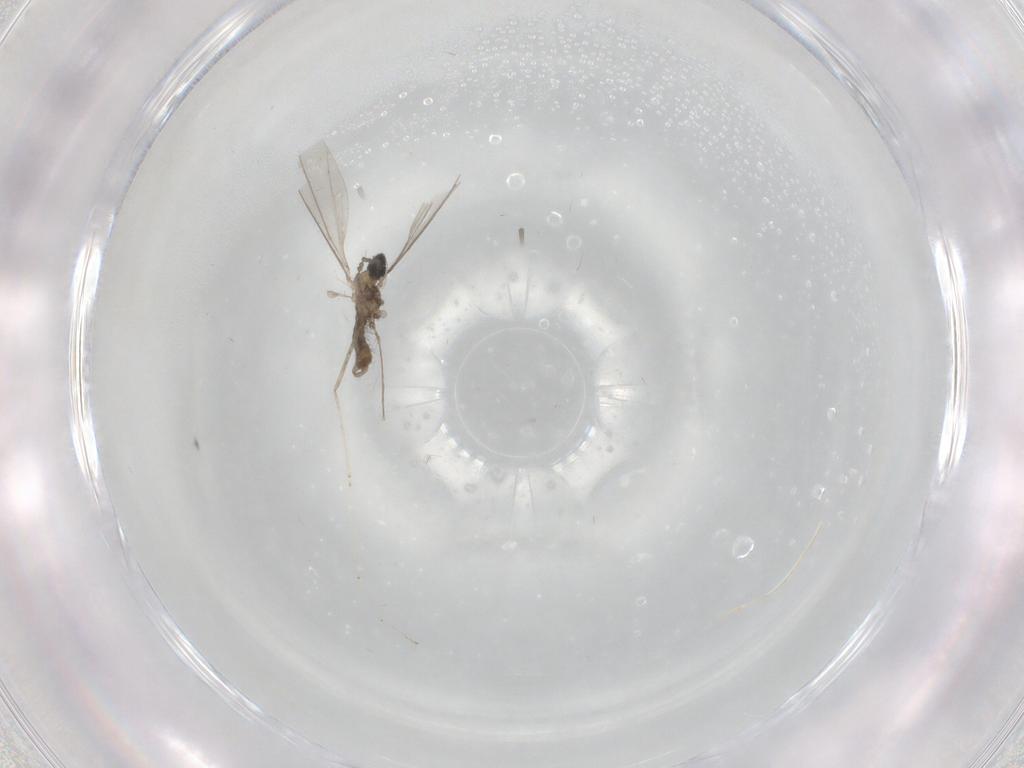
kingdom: Animalia
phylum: Arthropoda
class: Insecta
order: Diptera
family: Cecidomyiidae
